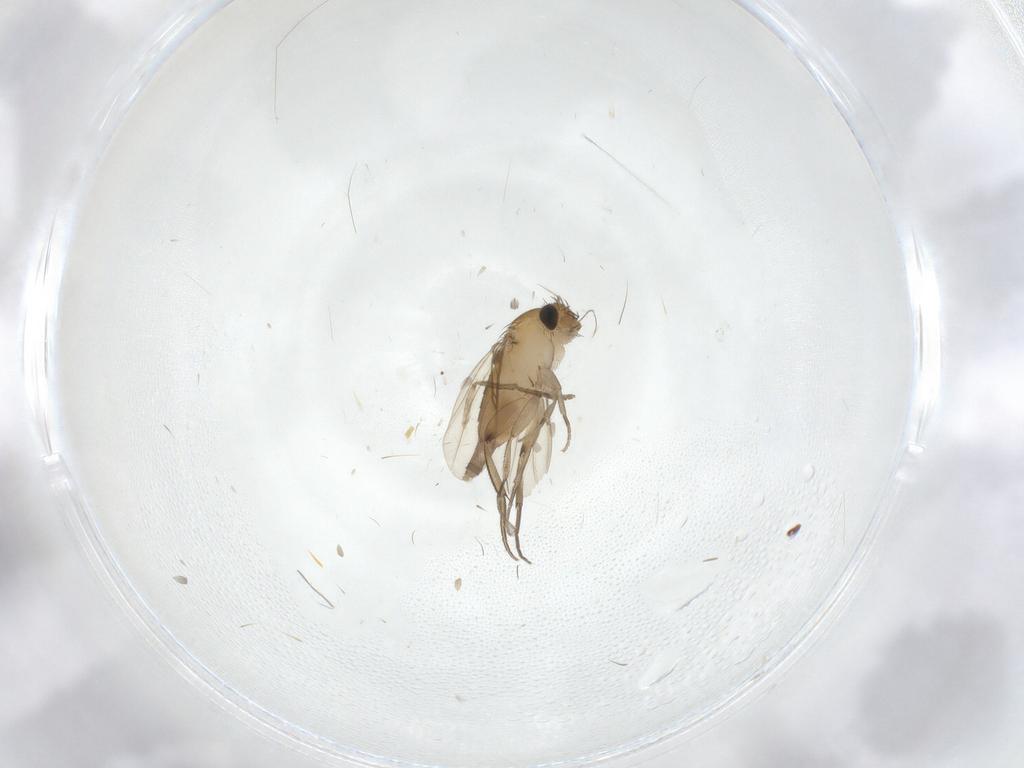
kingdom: Animalia
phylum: Arthropoda
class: Insecta
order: Diptera
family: Phoridae
